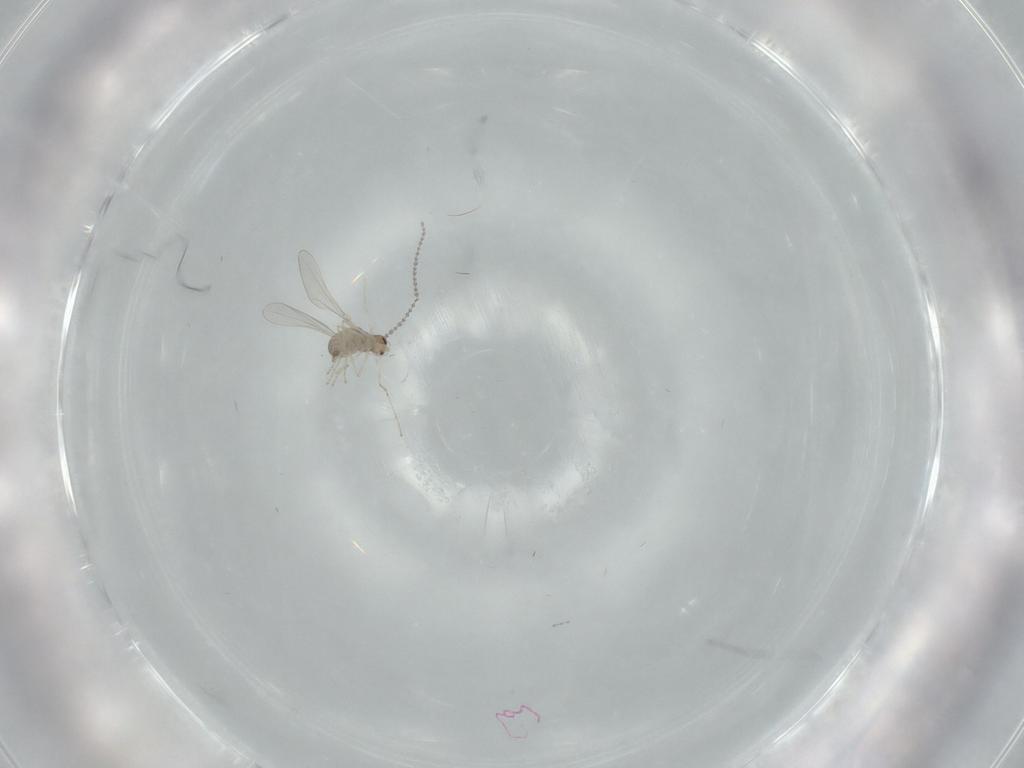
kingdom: Animalia
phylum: Arthropoda
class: Insecta
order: Diptera
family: Cecidomyiidae
